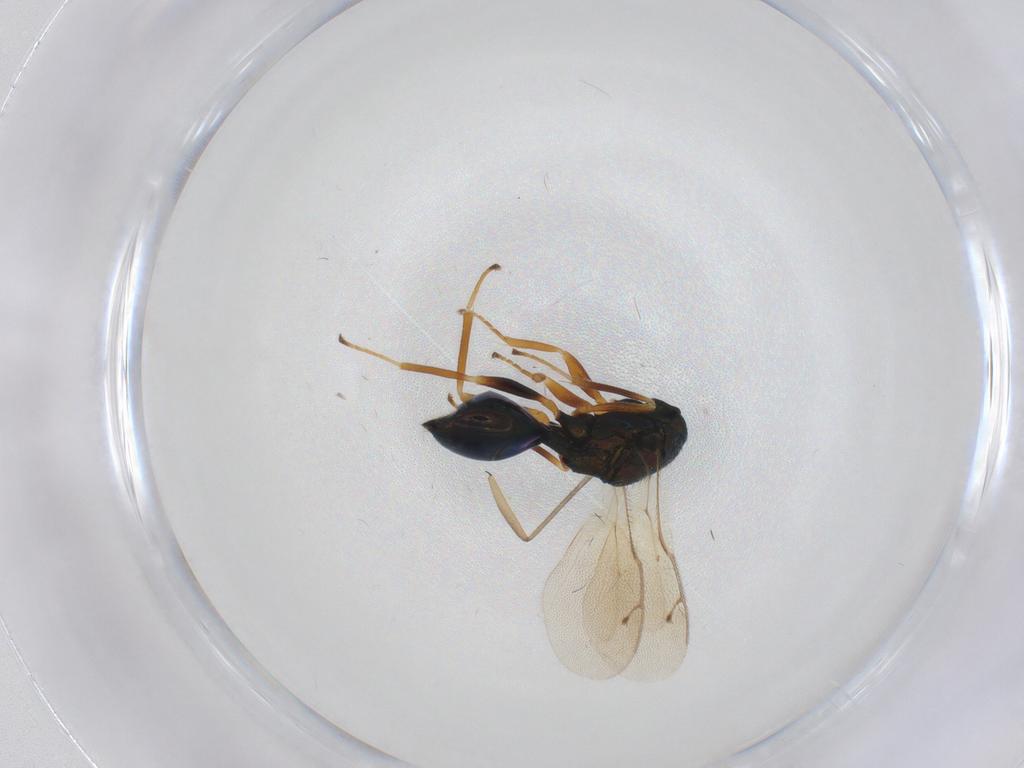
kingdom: Animalia
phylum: Arthropoda
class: Insecta
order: Hymenoptera
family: Pteromalidae
